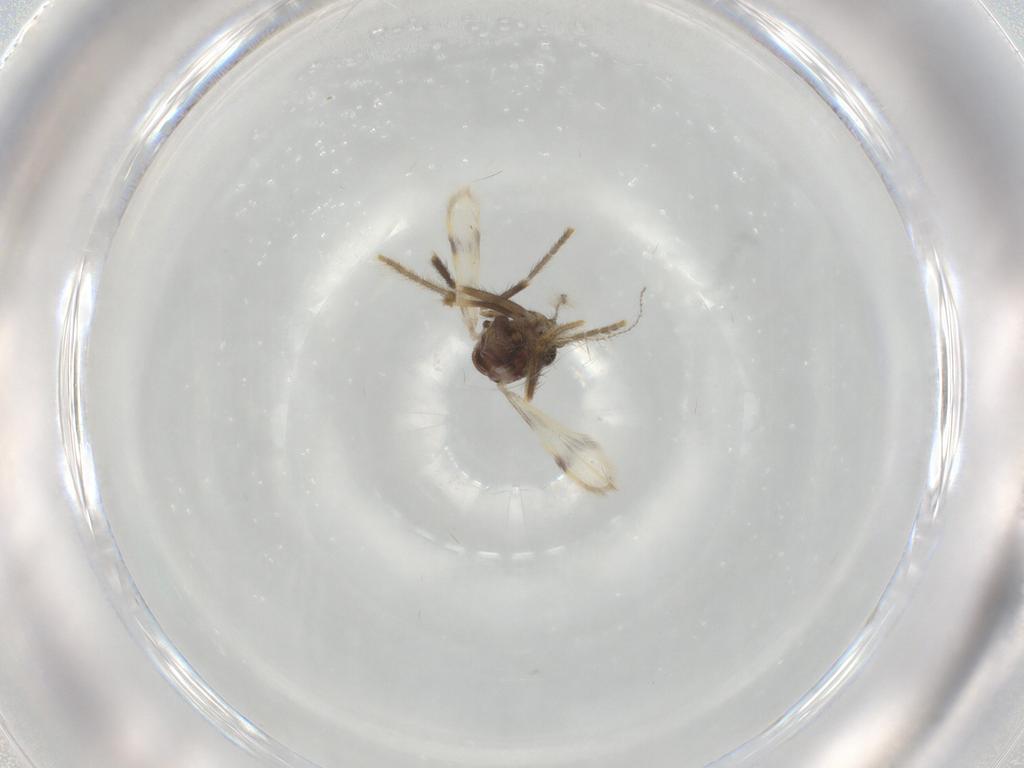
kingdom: Animalia
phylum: Arthropoda
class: Insecta
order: Diptera
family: Corethrellidae
